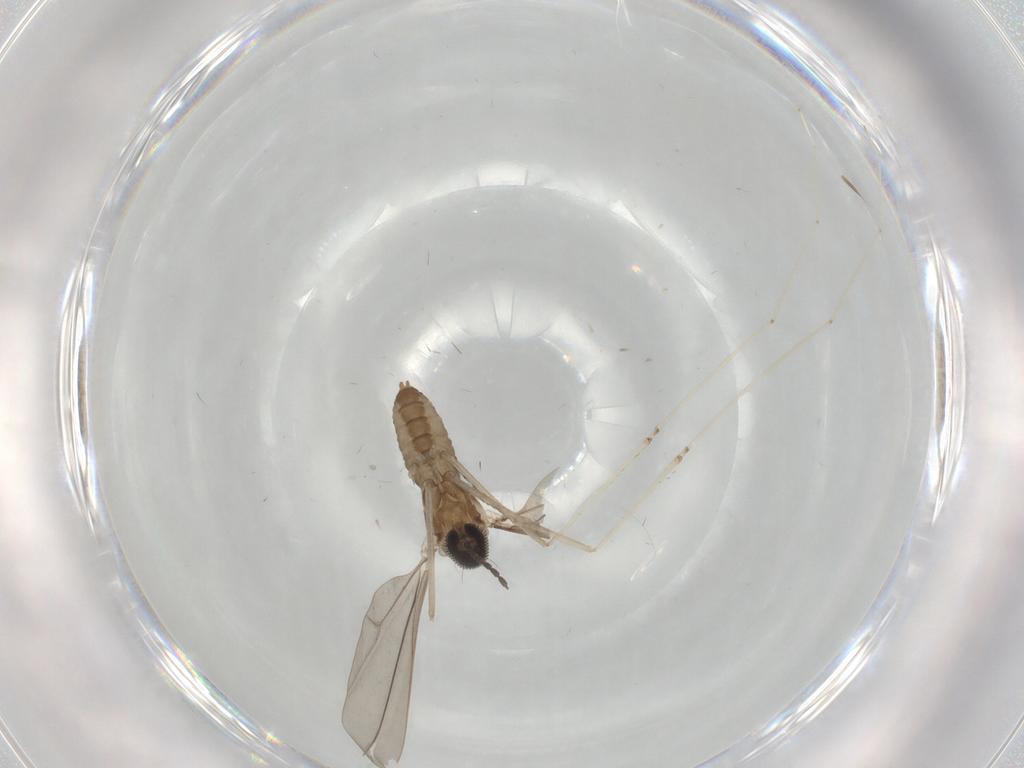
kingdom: Animalia
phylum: Arthropoda
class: Insecta
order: Diptera
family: Cecidomyiidae
